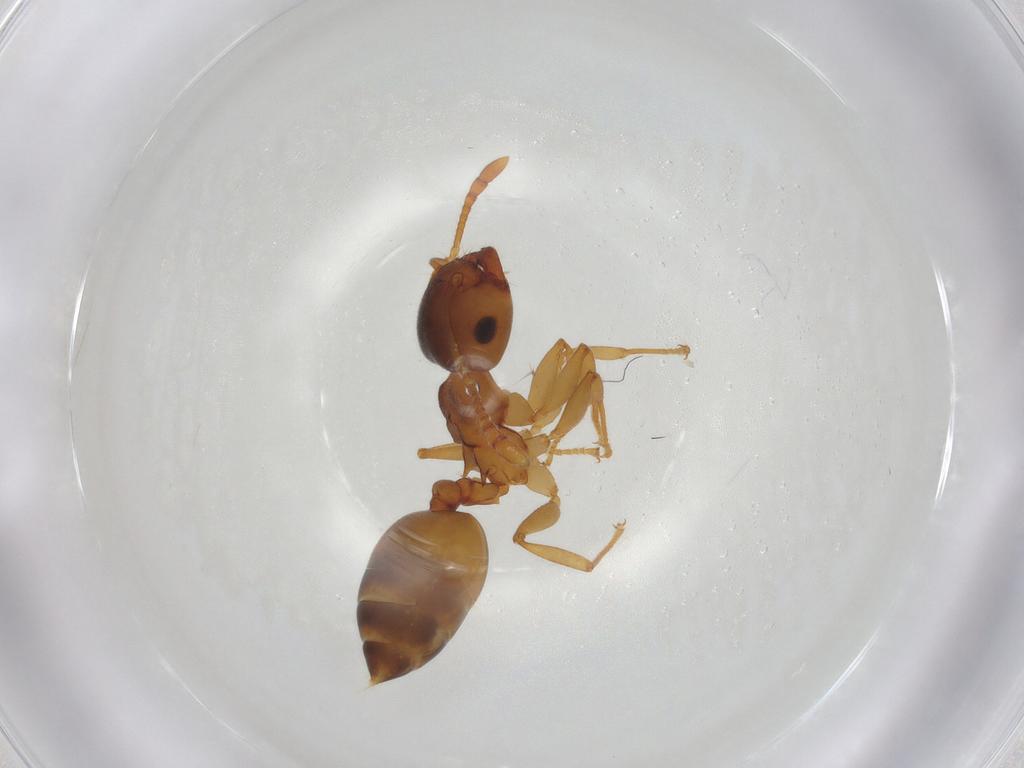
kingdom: Animalia
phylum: Arthropoda
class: Insecta
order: Hymenoptera
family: Formicidae
